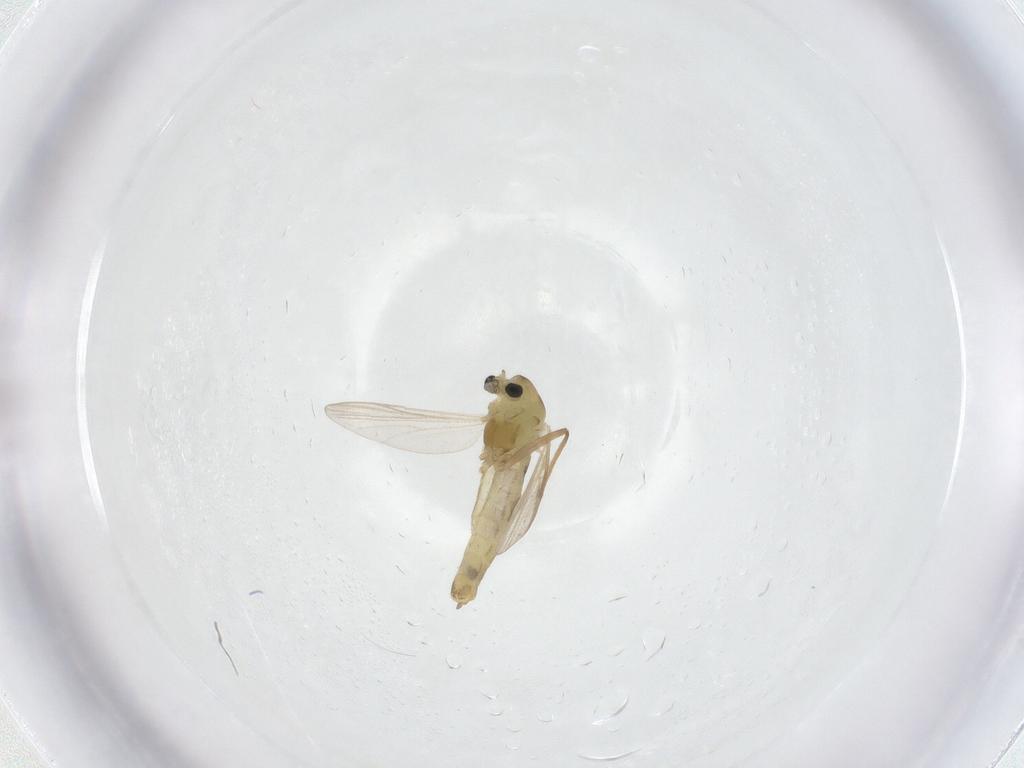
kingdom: Animalia
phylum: Arthropoda
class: Insecta
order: Diptera
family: Chironomidae
